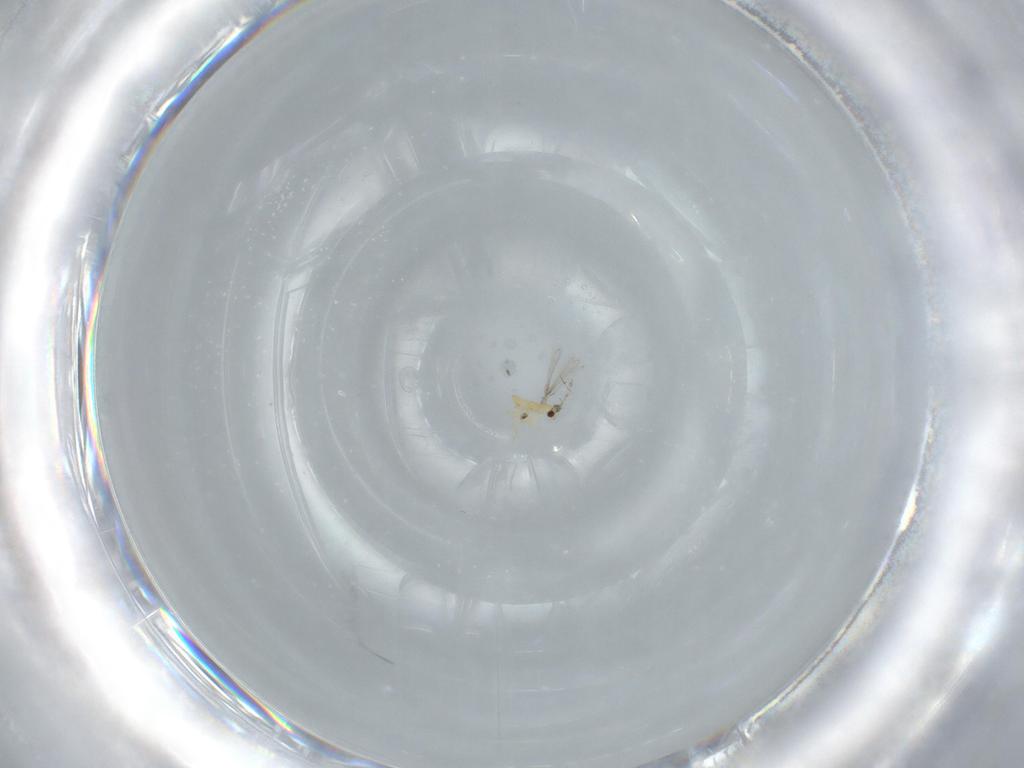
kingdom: Animalia
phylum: Arthropoda
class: Insecta
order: Hymenoptera
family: Mymaridae
